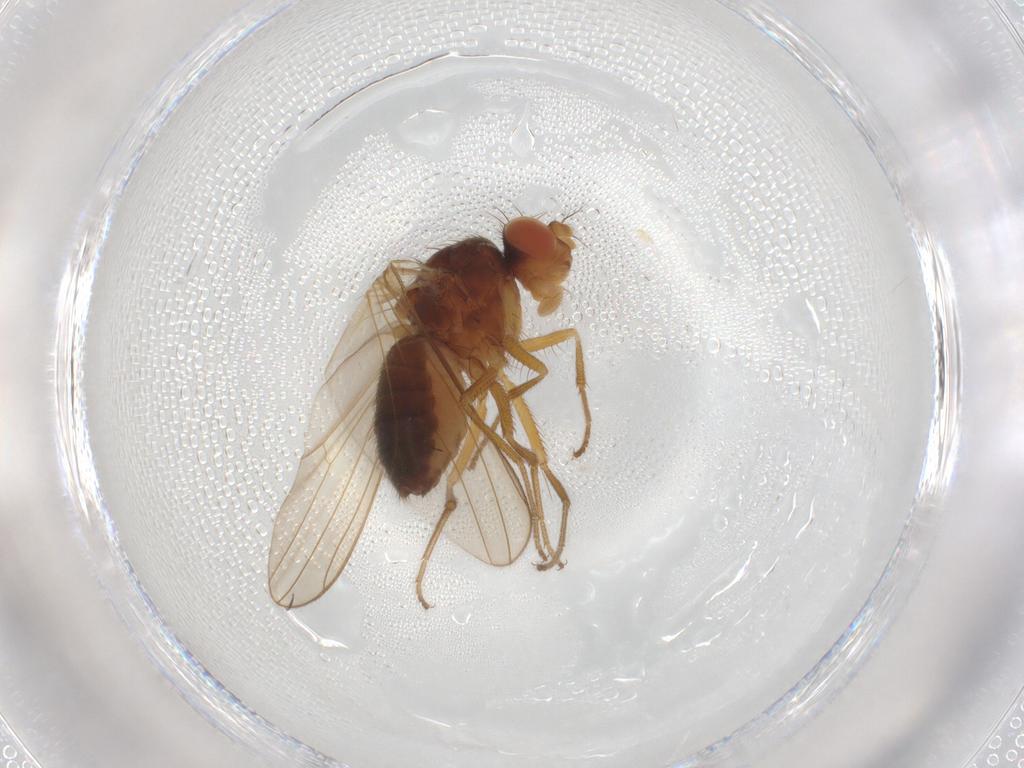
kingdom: Animalia
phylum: Arthropoda
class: Insecta
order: Diptera
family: Drosophilidae
